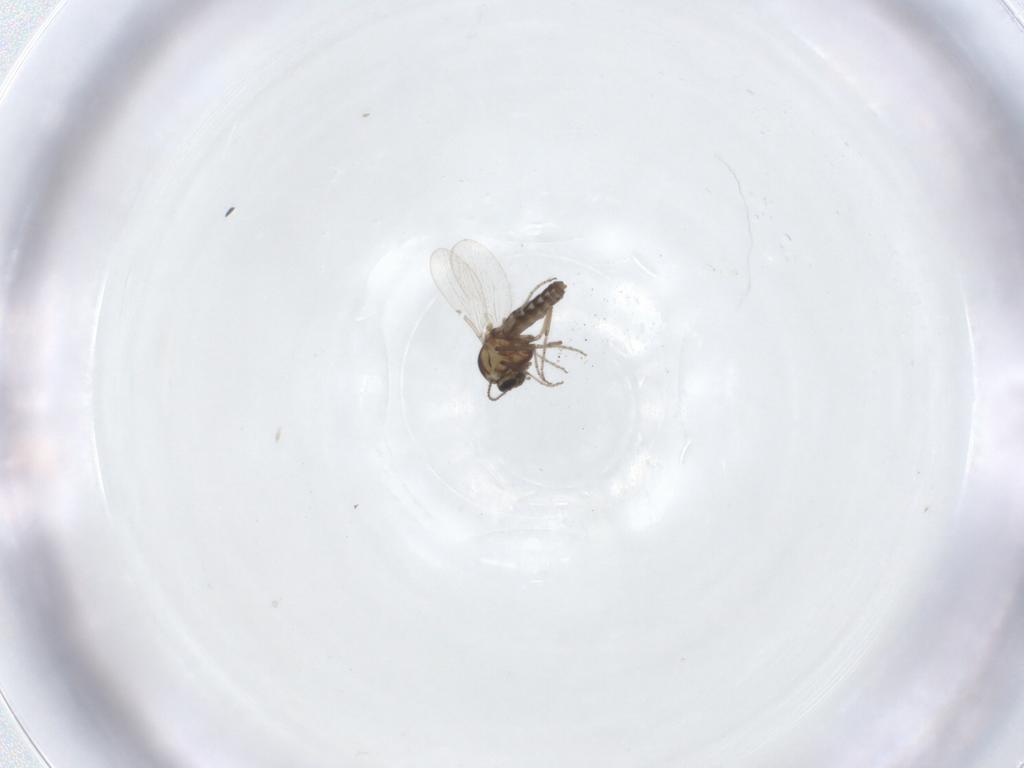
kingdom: Animalia
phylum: Arthropoda
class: Insecta
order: Diptera
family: Ceratopogonidae
